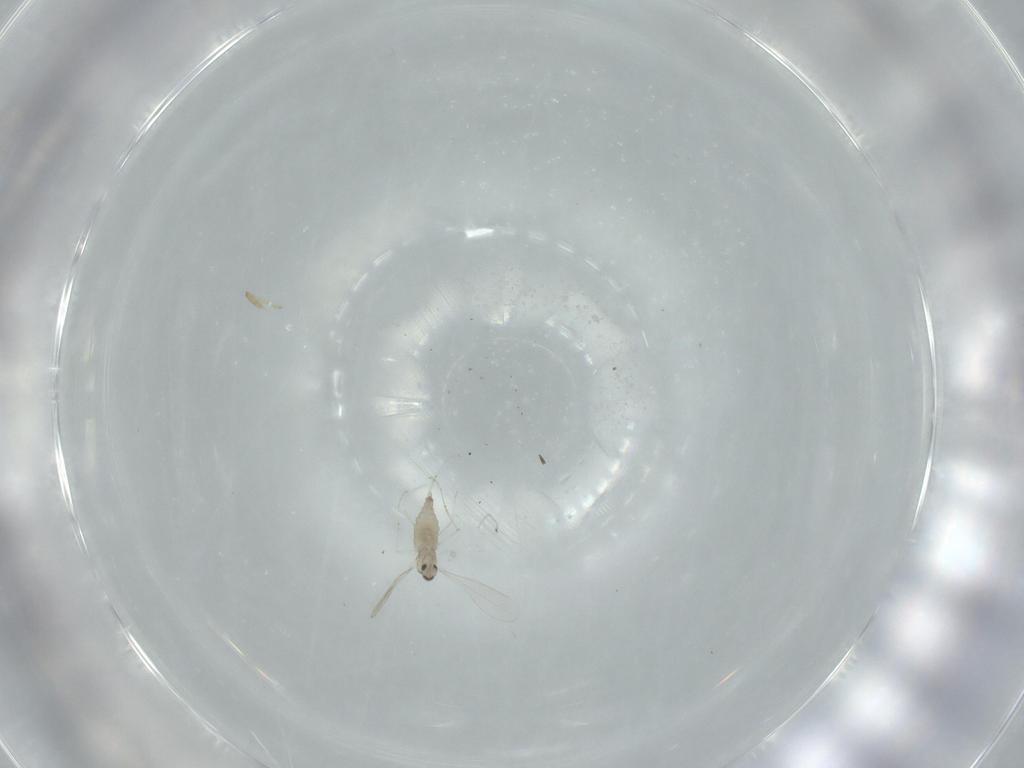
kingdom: Animalia
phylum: Arthropoda
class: Insecta
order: Diptera
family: Cecidomyiidae
